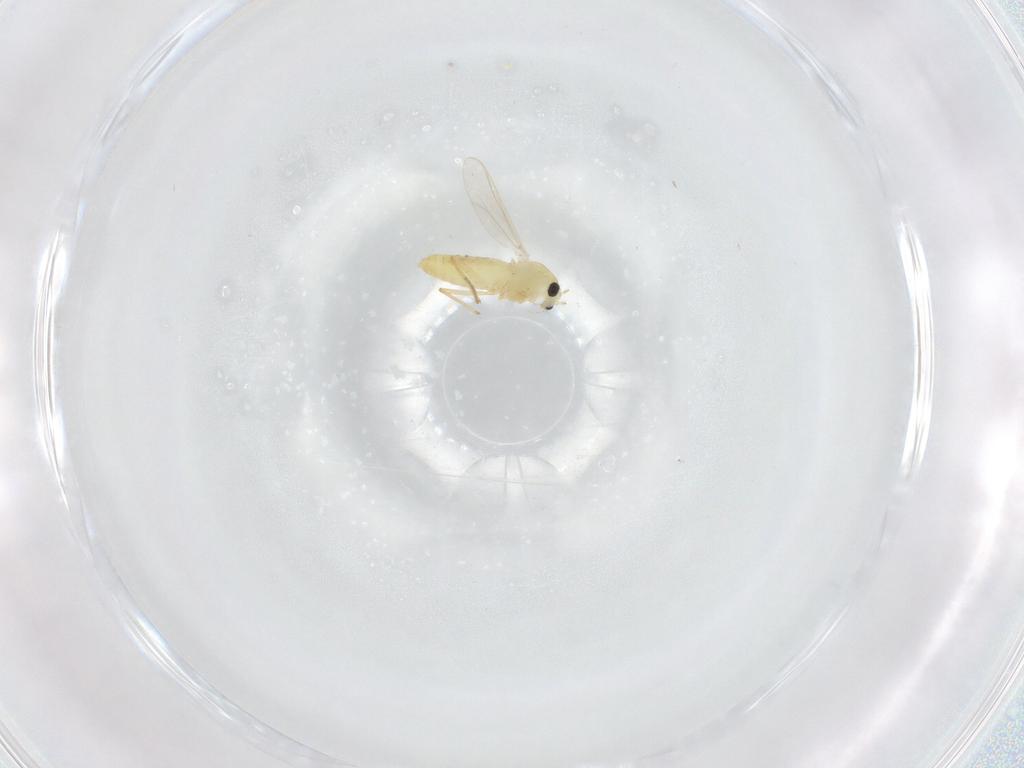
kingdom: Animalia
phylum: Arthropoda
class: Insecta
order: Diptera
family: Chironomidae
